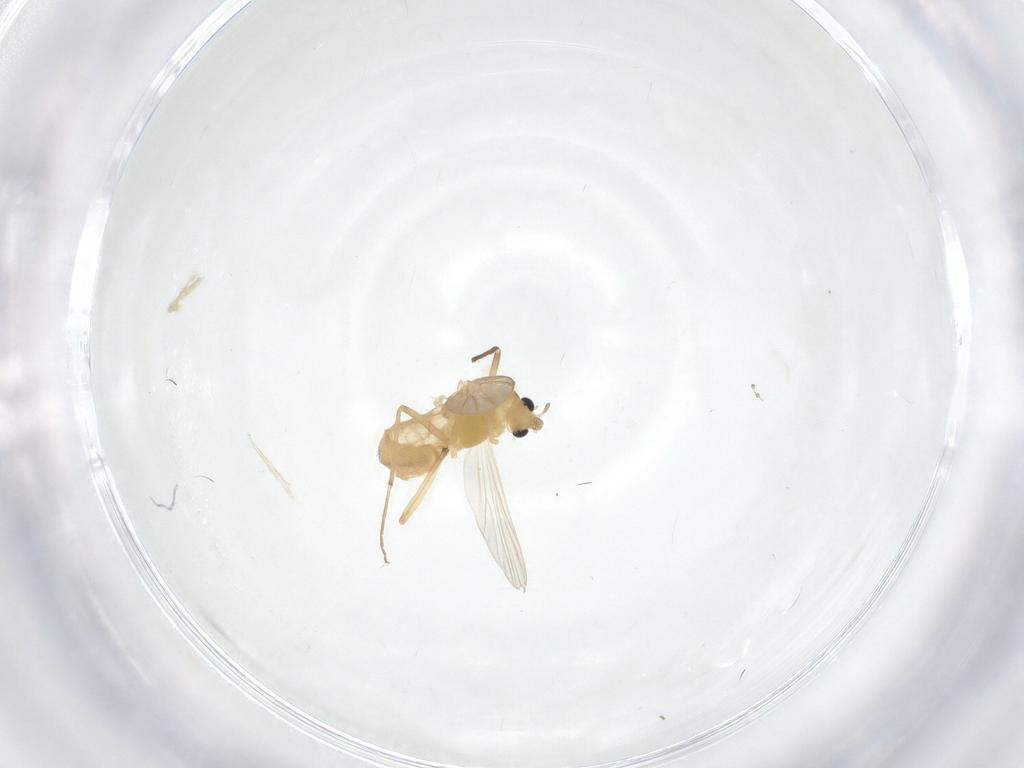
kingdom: Animalia
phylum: Arthropoda
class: Insecta
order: Diptera
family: Chironomidae
